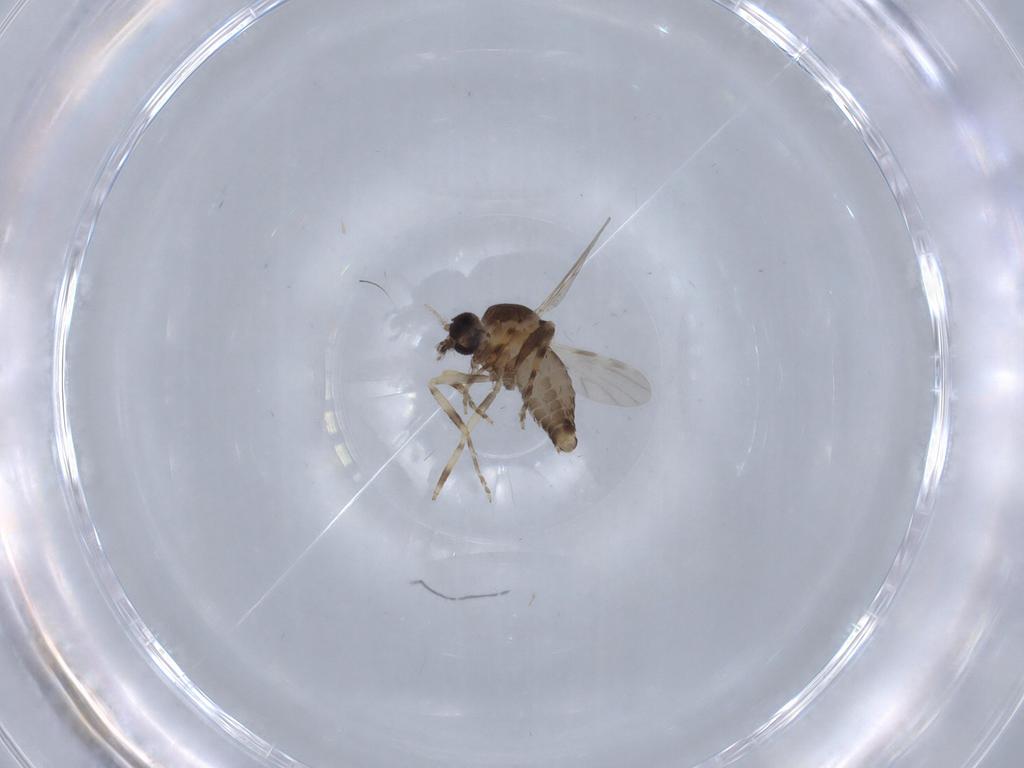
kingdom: Animalia
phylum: Arthropoda
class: Insecta
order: Diptera
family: Ceratopogonidae
